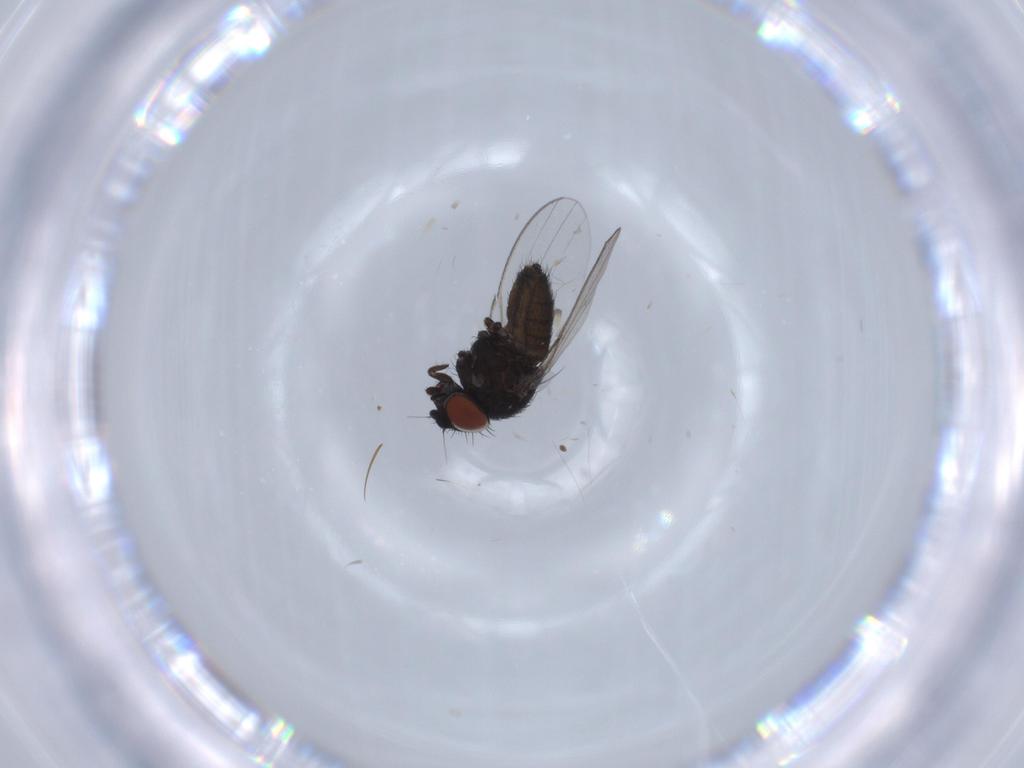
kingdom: Animalia
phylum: Arthropoda
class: Insecta
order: Diptera
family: Milichiidae
